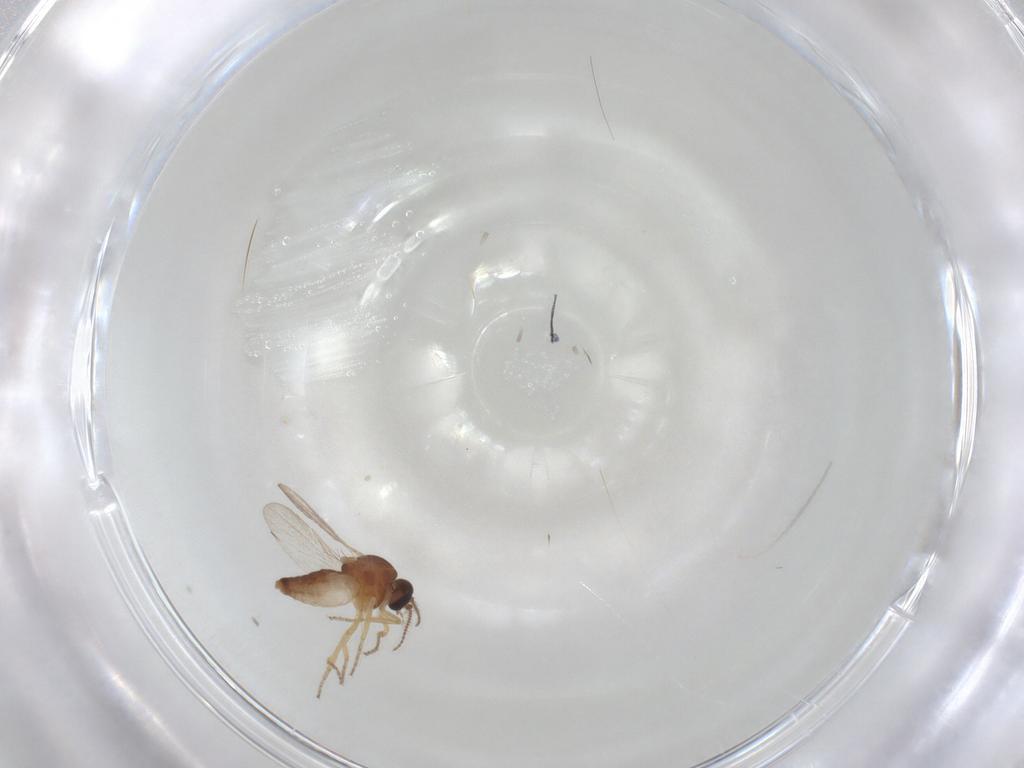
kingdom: Animalia
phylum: Arthropoda
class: Insecta
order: Diptera
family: Ceratopogonidae
